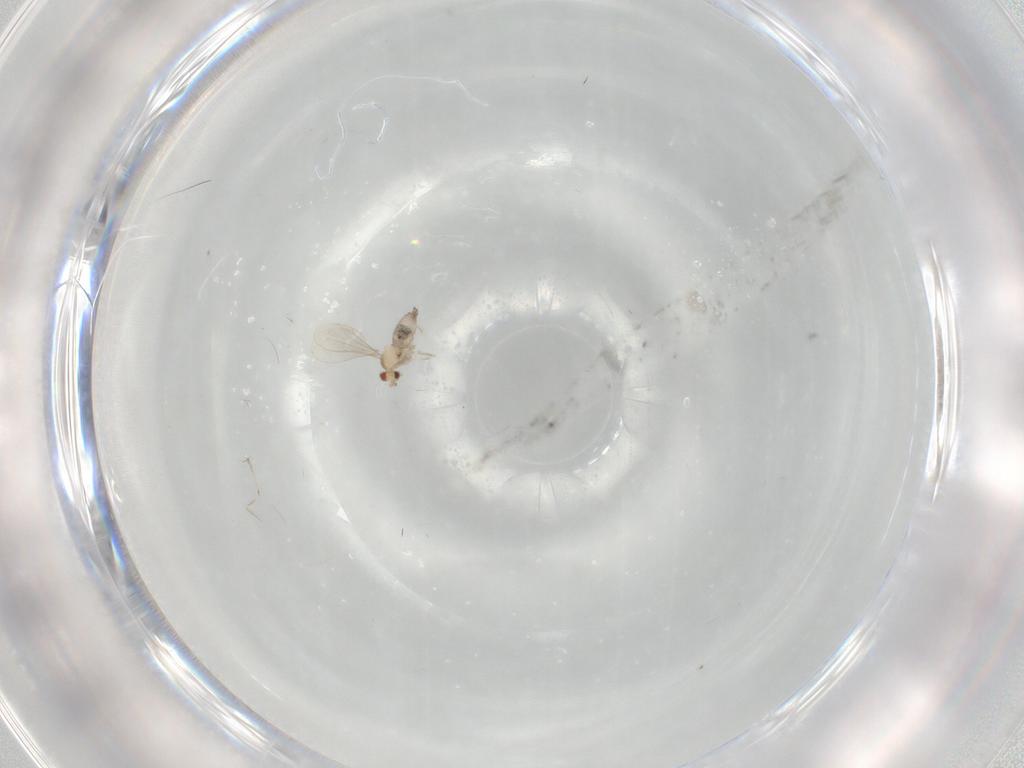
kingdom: Animalia
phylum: Arthropoda
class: Insecta
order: Diptera
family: Cecidomyiidae
